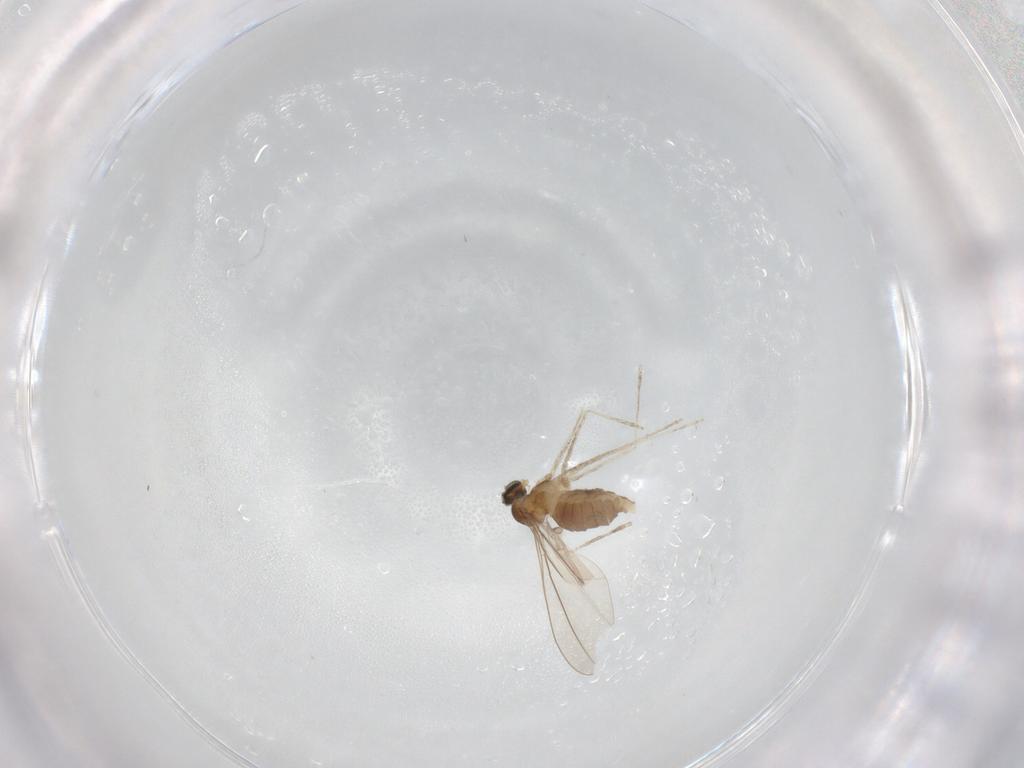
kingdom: Animalia
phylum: Arthropoda
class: Insecta
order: Diptera
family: Cecidomyiidae
